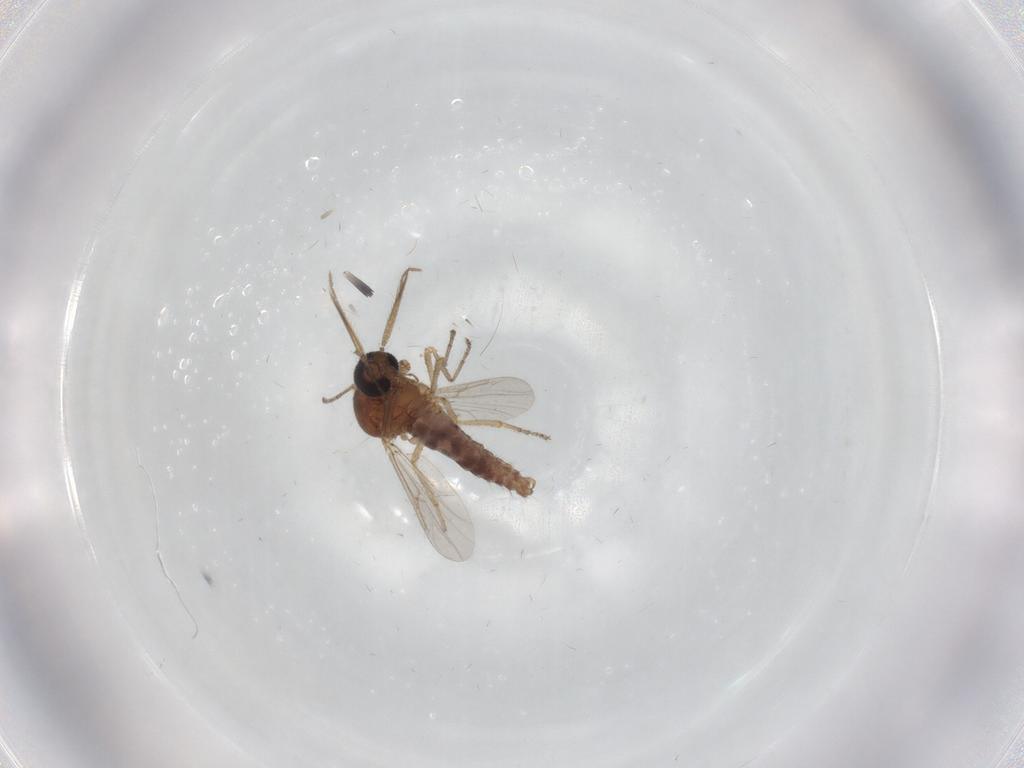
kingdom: Animalia
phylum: Arthropoda
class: Insecta
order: Diptera
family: Ceratopogonidae
